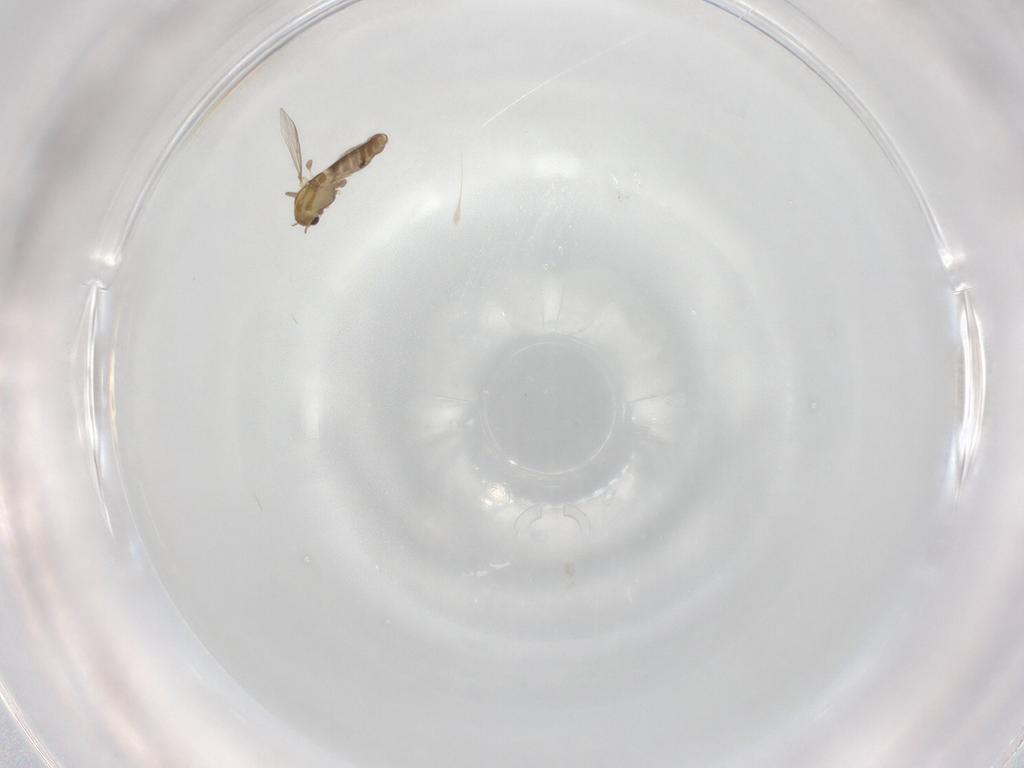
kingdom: Animalia
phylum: Arthropoda
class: Insecta
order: Diptera
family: Chironomidae
